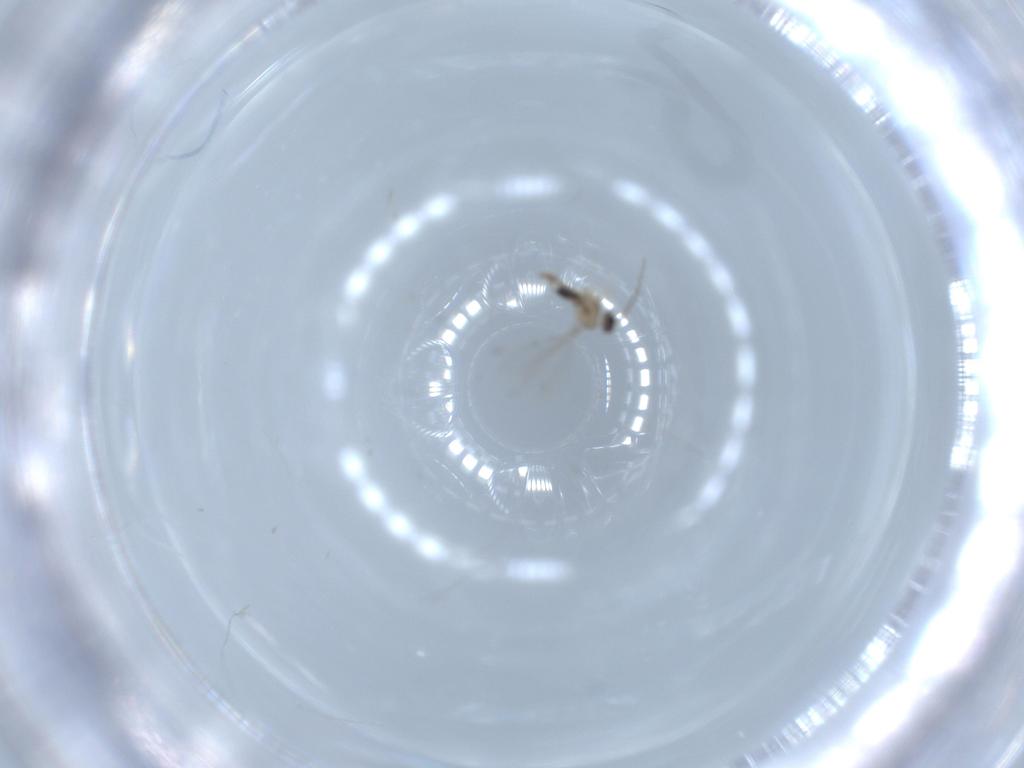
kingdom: Animalia
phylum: Arthropoda
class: Insecta
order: Diptera
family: Cecidomyiidae
